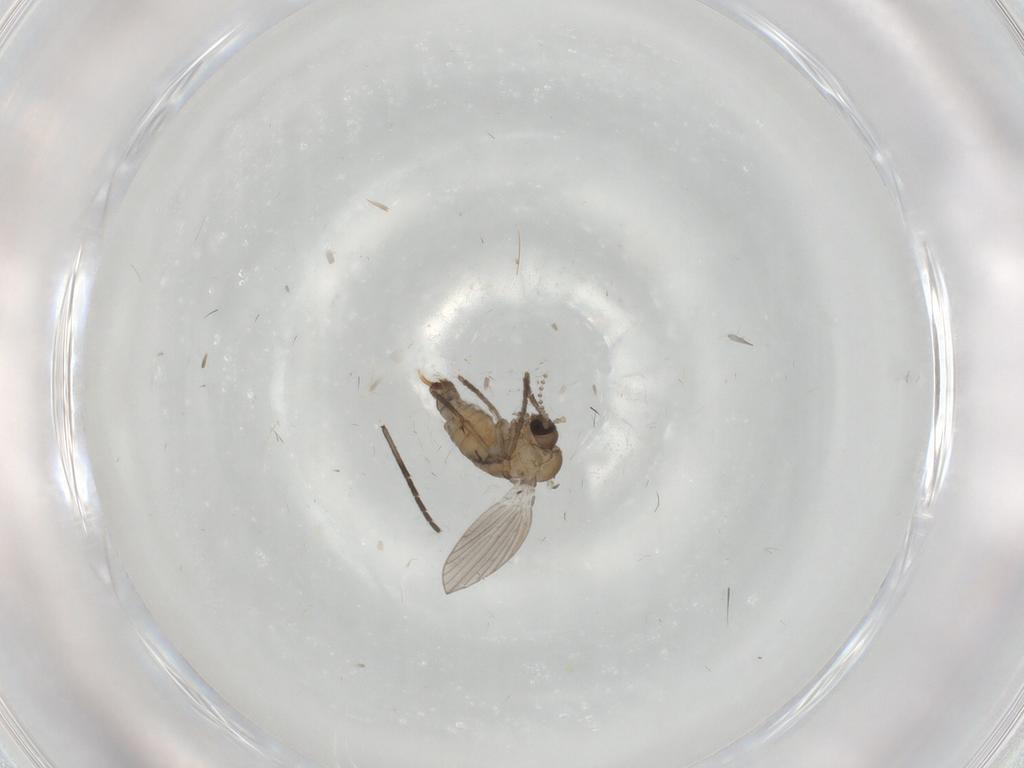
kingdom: Animalia
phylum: Arthropoda
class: Insecta
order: Diptera
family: Psychodidae
